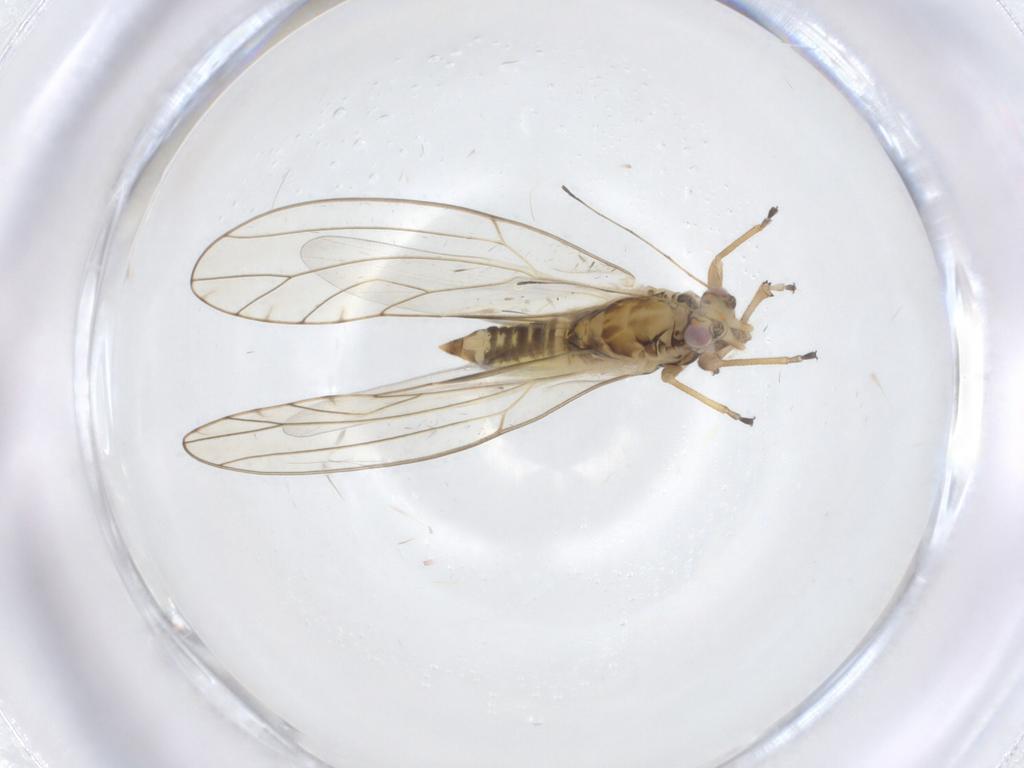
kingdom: Animalia
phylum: Arthropoda
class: Insecta
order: Diptera
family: Cecidomyiidae
